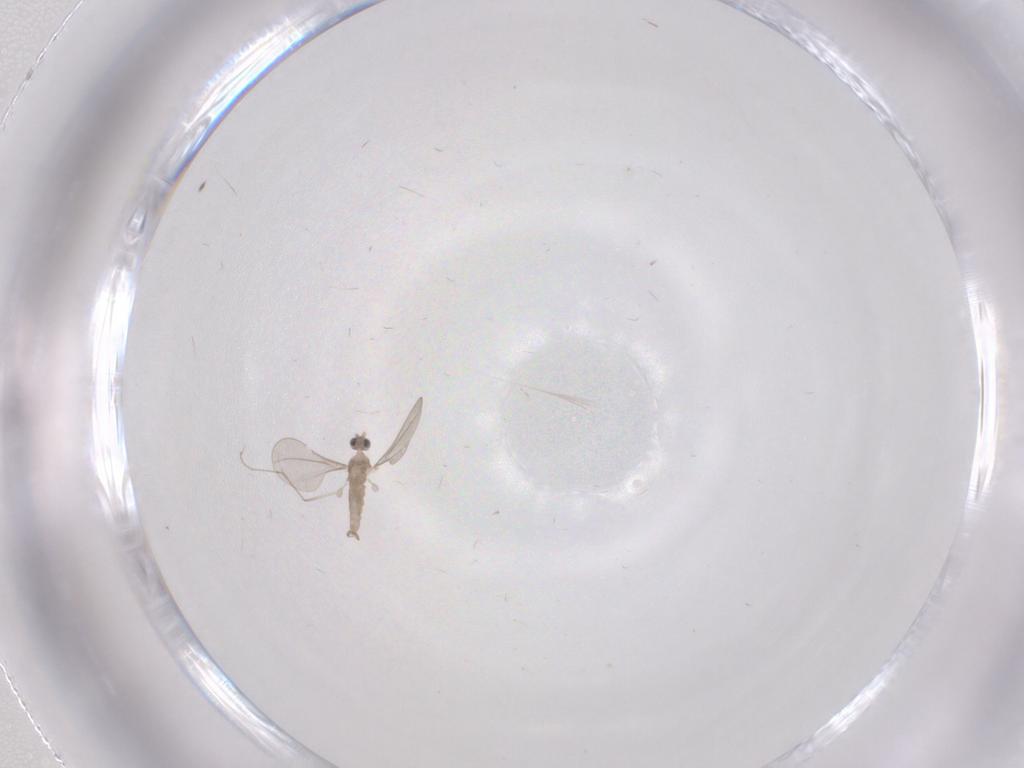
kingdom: Animalia
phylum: Arthropoda
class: Insecta
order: Diptera
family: Cecidomyiidae
